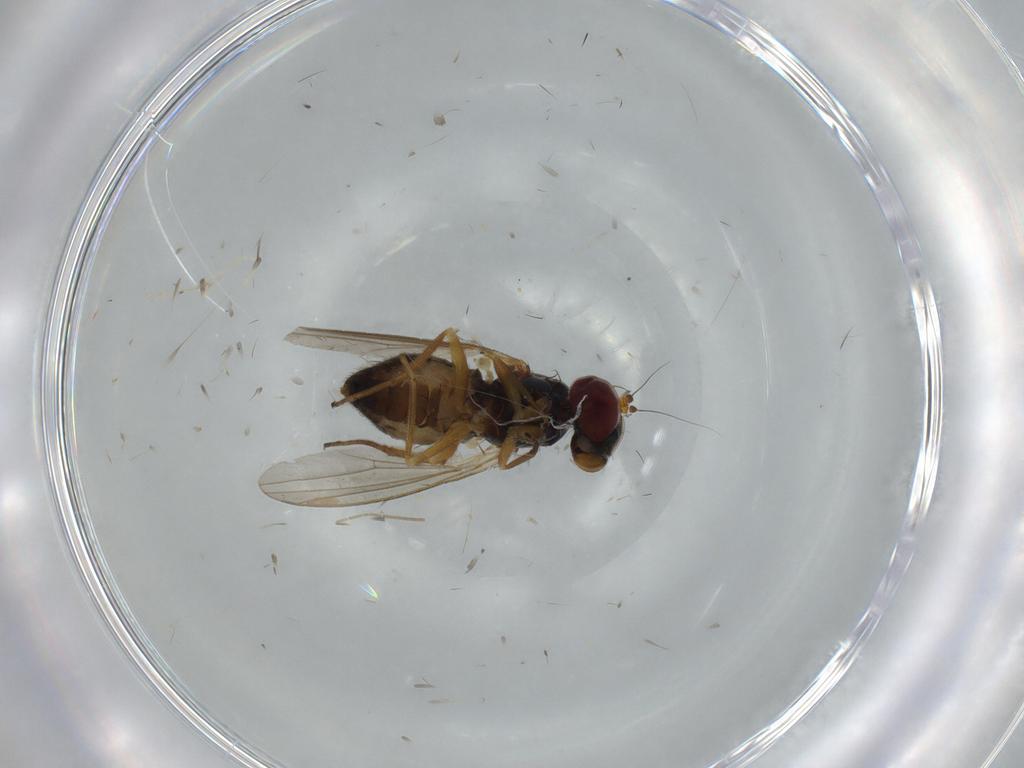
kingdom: Animalia
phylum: Arthropoda
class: Insecta
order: Diptera
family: Dolichopodidae
